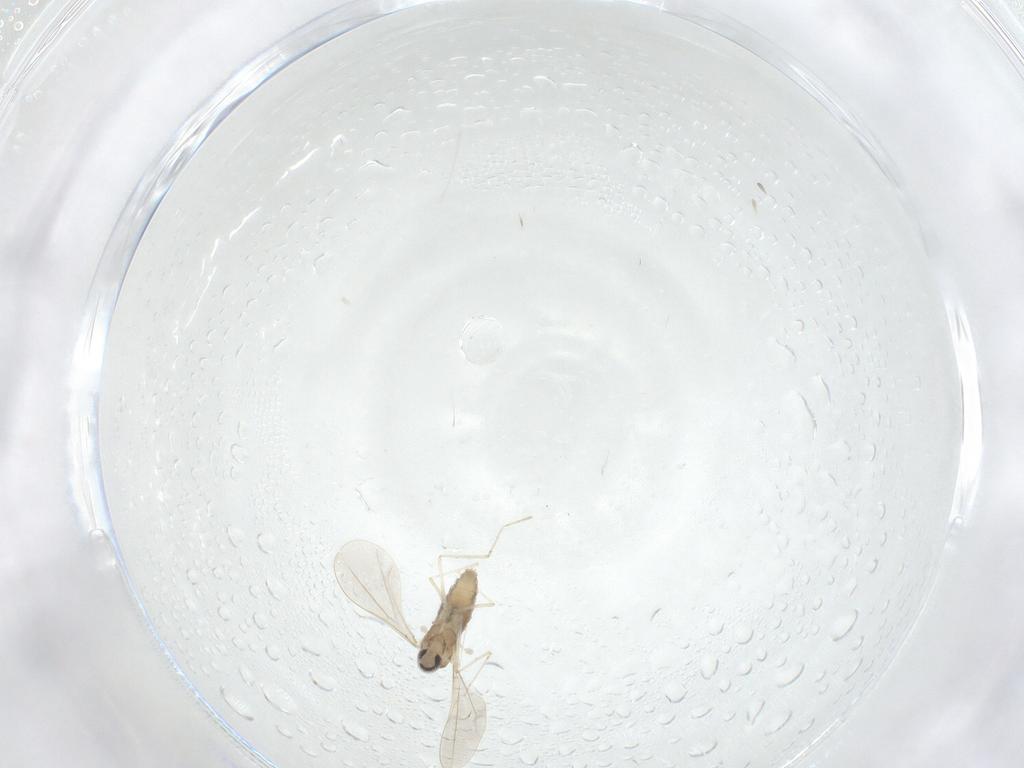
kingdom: Animalia
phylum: Arthropoda
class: Insecta
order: Diptera
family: Cecidomyiidae
